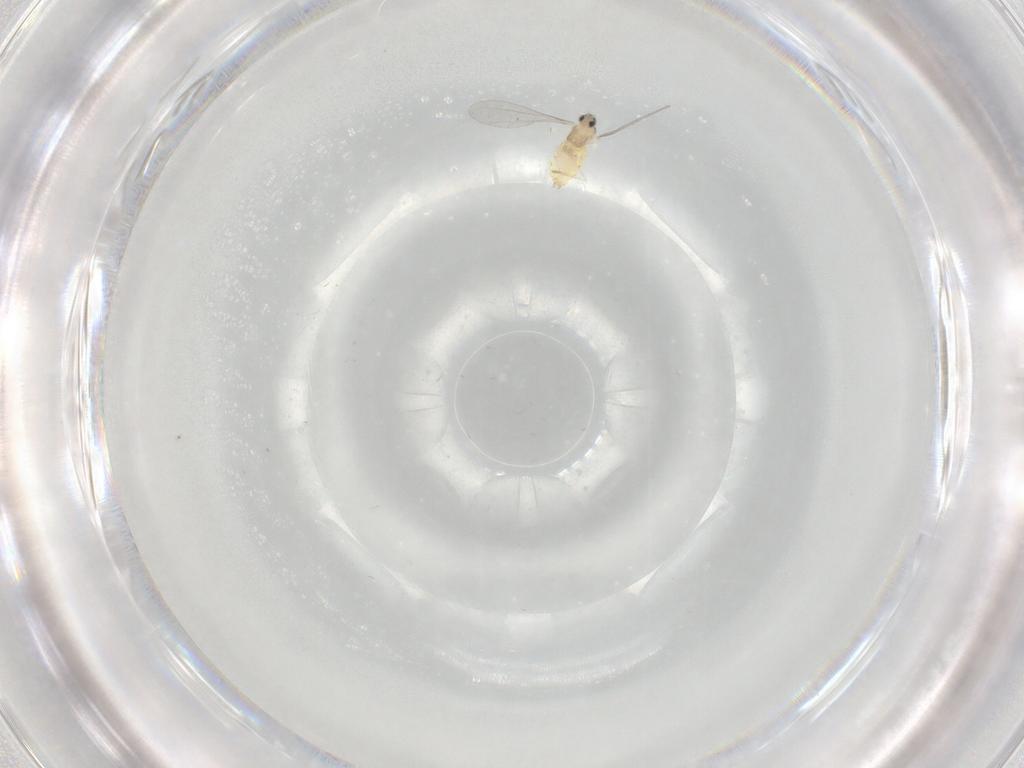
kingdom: Animalia
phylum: Arthropoda
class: Insecta
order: Diptera
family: Cecidomyiidae
